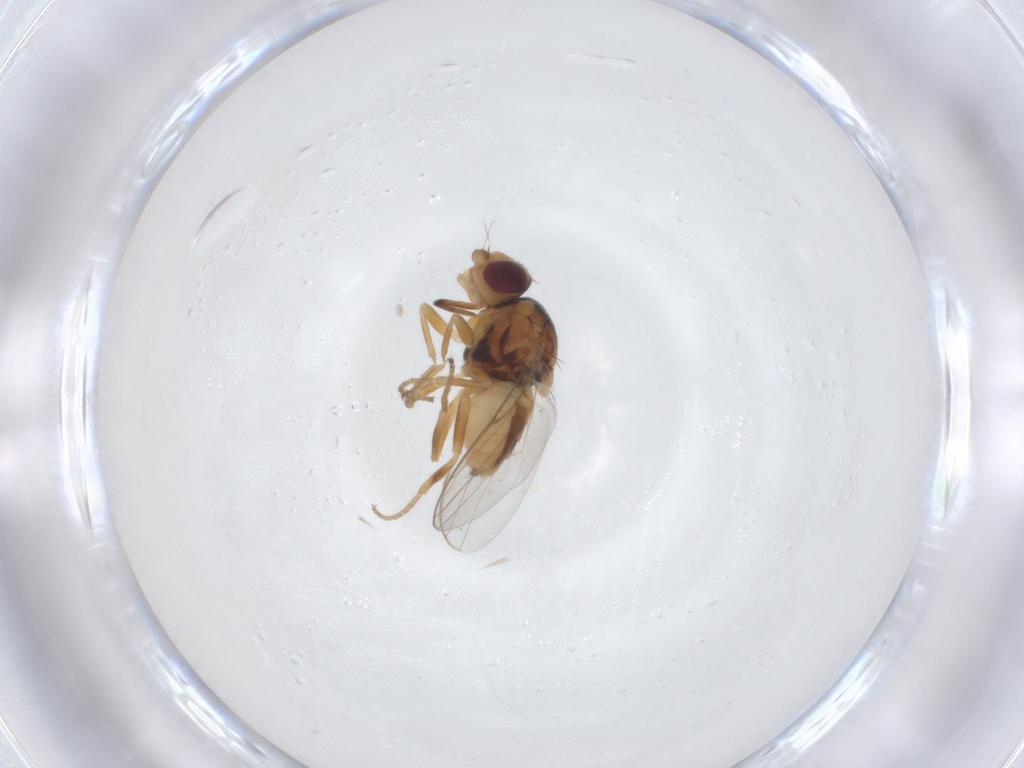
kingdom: Animalia
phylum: Arthropoda
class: Insecta
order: Diptera
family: Chloropidae
